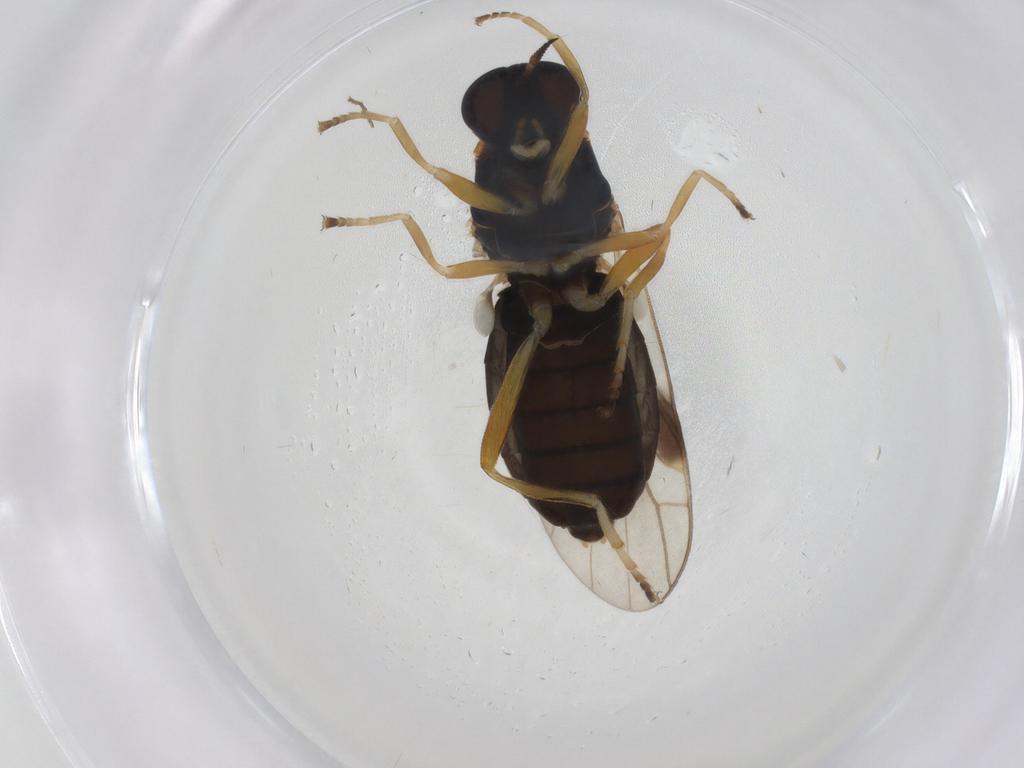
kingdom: Animalia
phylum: Arthropoda
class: Insecta
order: Diptera
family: Stratiomyidae
